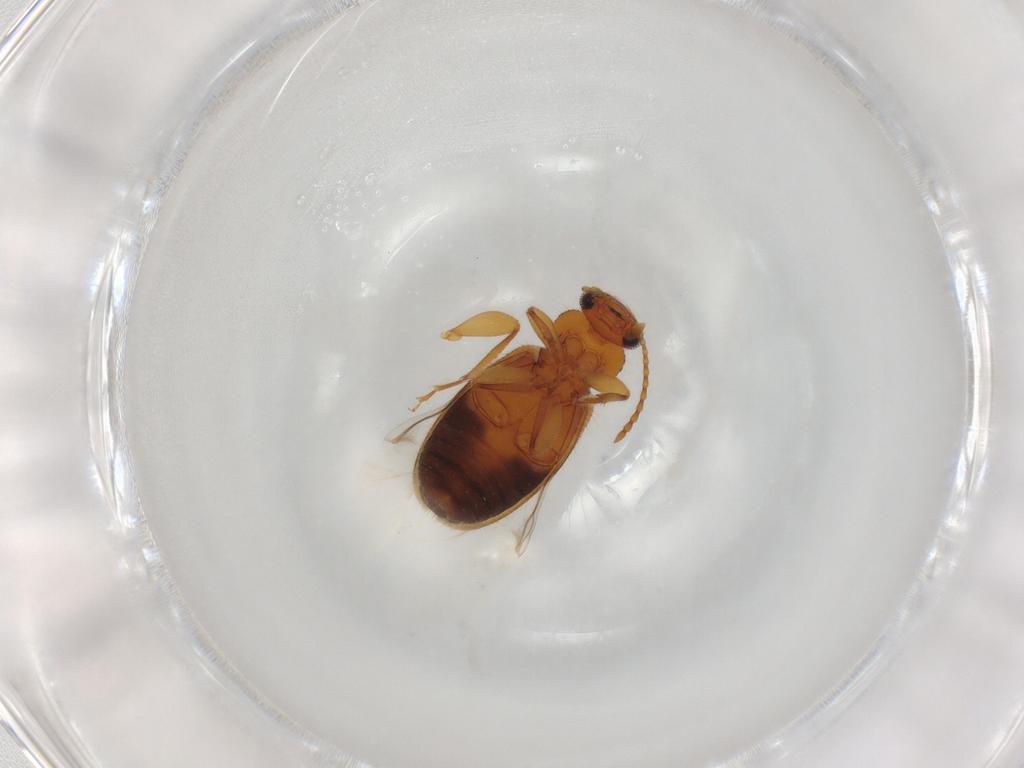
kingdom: Animalia
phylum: Arthropoda
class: Insecta
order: Coleoptera
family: Anthicidae
